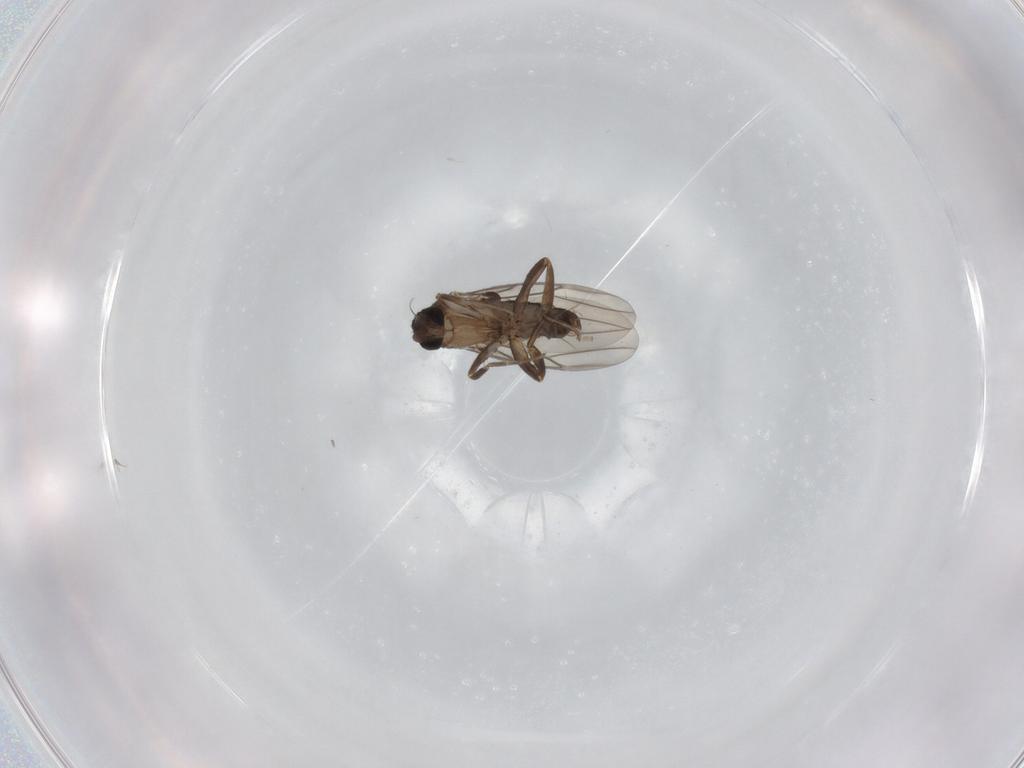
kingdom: Animalia
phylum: Arthropoda
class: Insecta
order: Diptera
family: Phoridae
